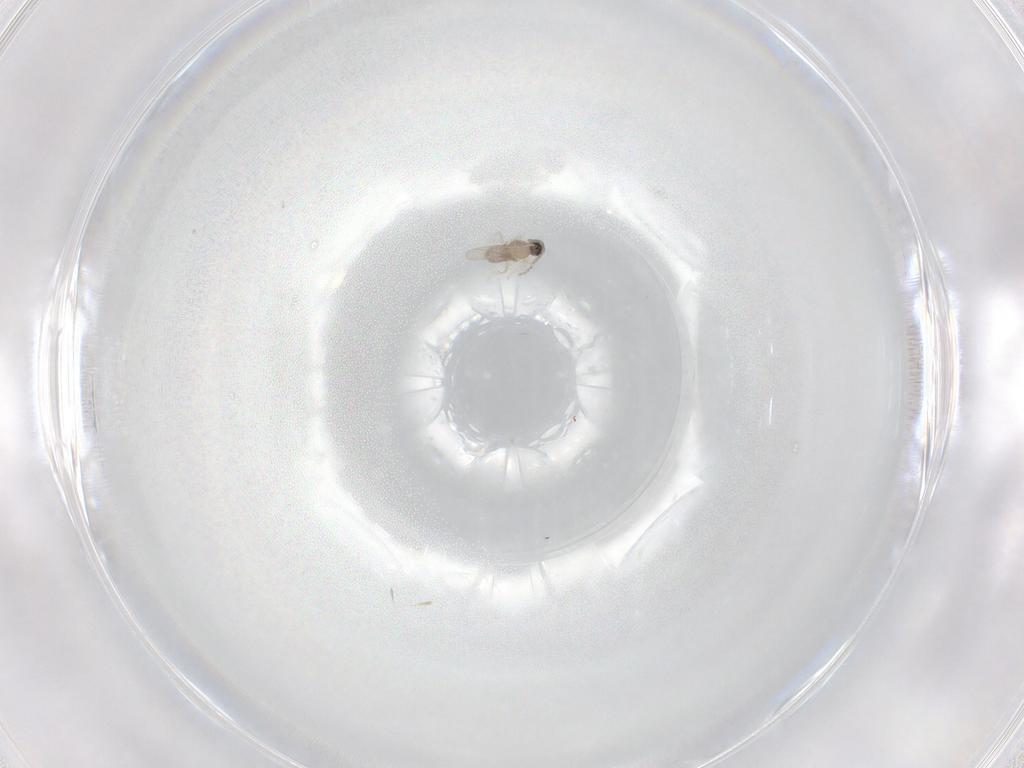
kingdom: Animalia
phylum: Arthropoda
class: Insecta
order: Diptera
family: Cecidomyiidae
